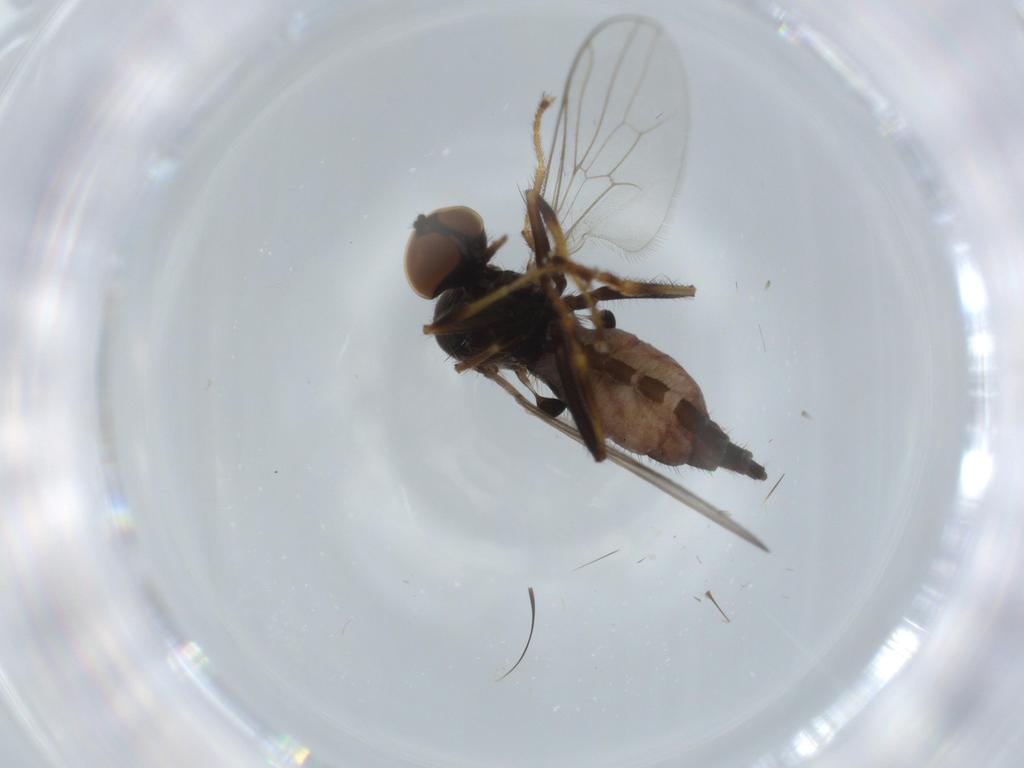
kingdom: Animalia
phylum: Arthropoda
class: Insecta
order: Diptera
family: Hybotidae
